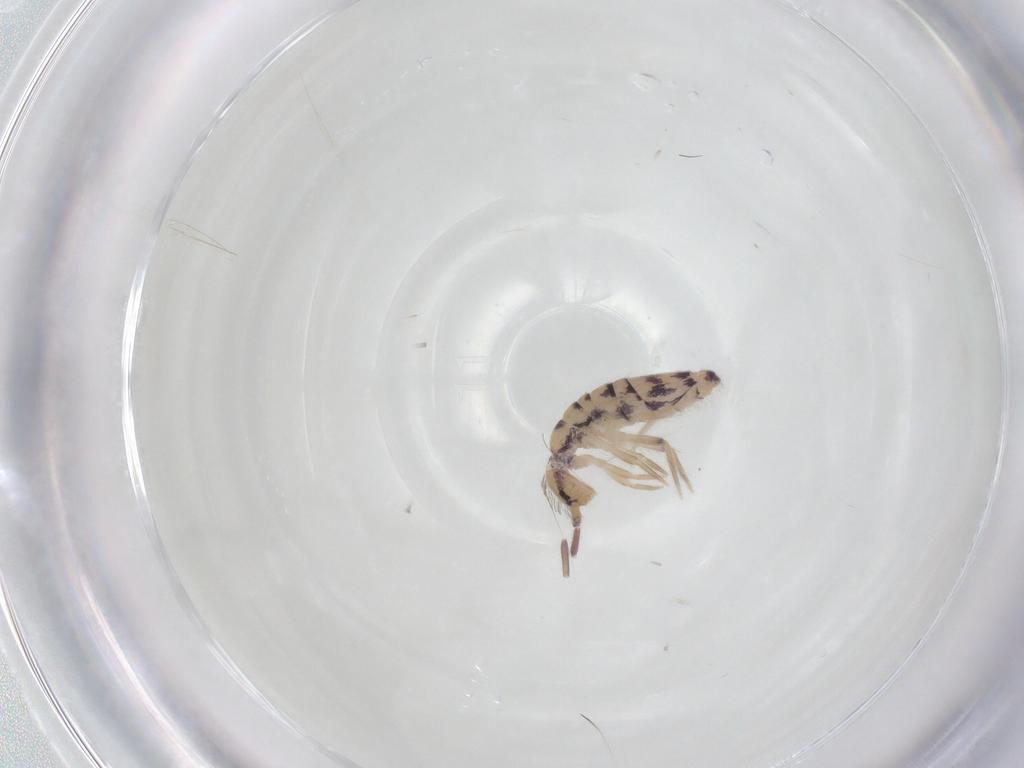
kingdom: Animalia
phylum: Arthropoda
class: Collembola
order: Entomobryomorpha
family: Entomobryidae
